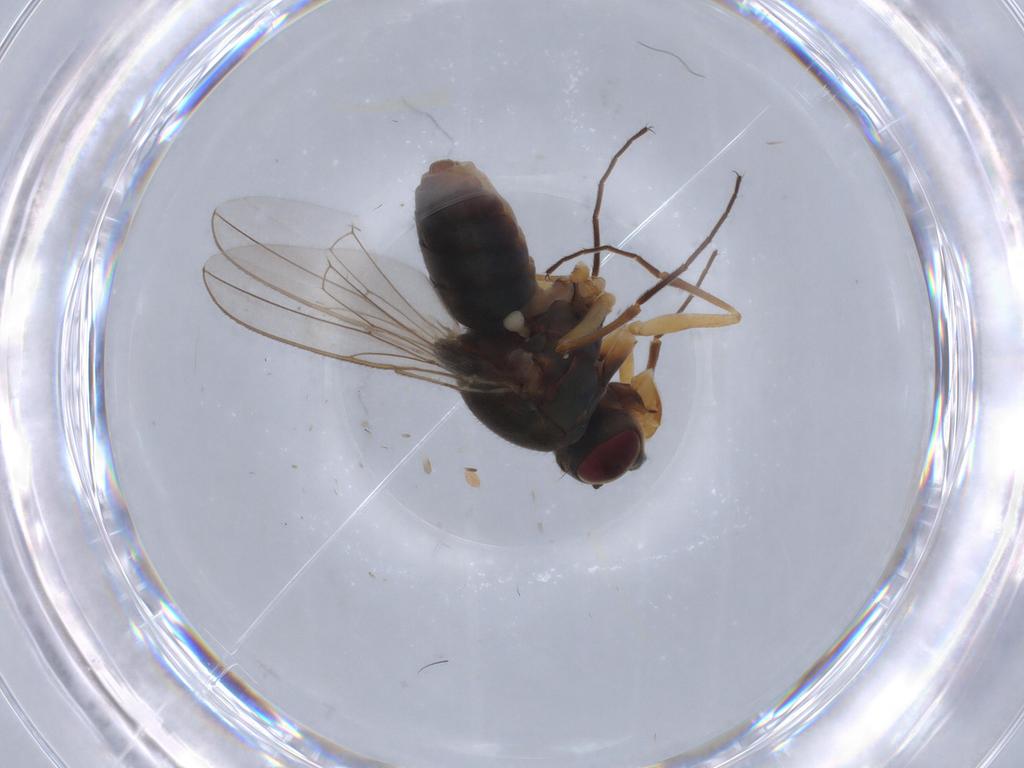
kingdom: Animalia
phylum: Arthropoda
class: Insecta
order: Diptera
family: Ephydridae
